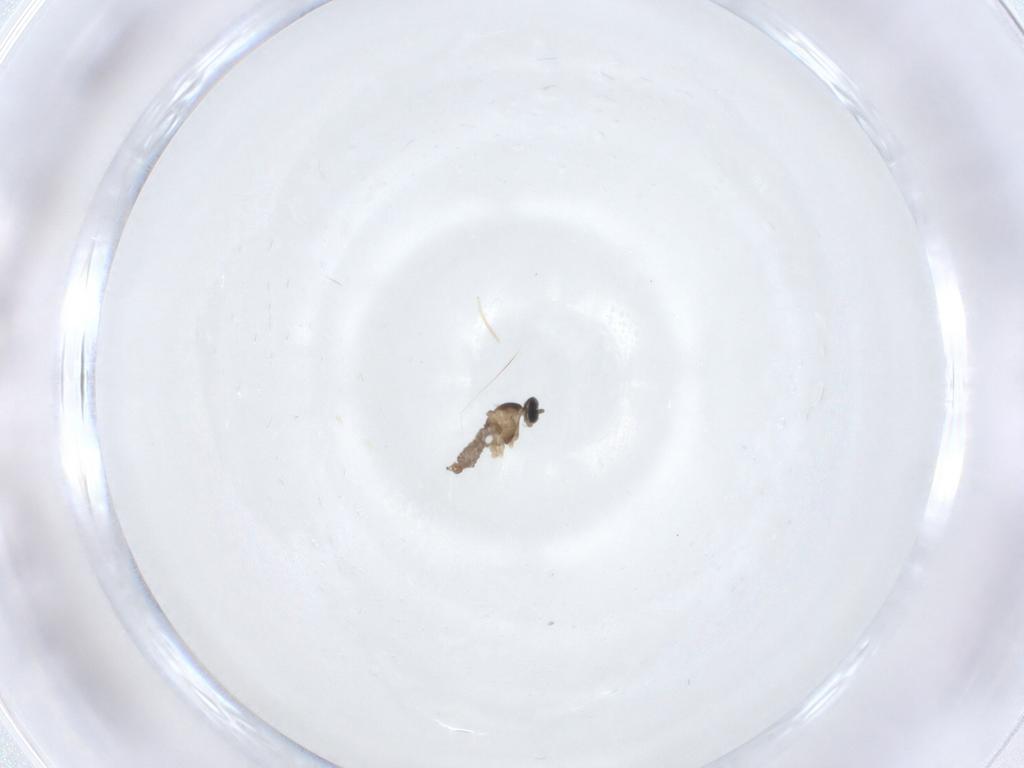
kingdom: Animalia
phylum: Arthropoda
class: Insecta
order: Diptera
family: Cecidomyiidae
